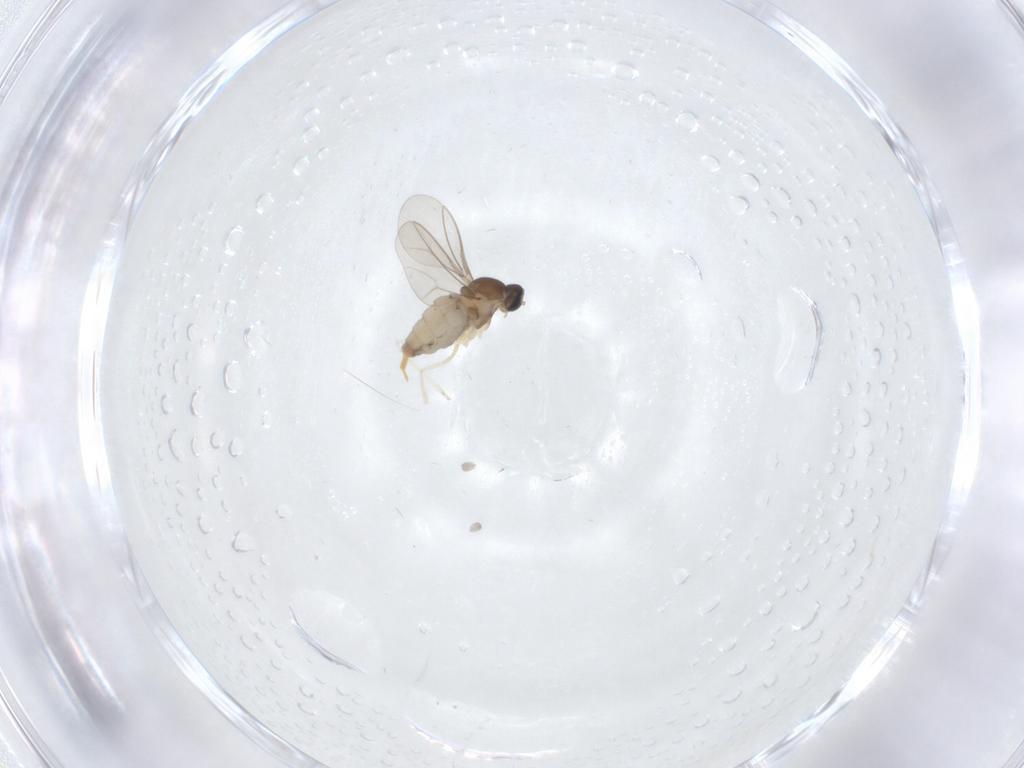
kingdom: Animalia
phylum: Arthropoda
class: Insecta
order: Diptera
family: Cecidomyiidae
